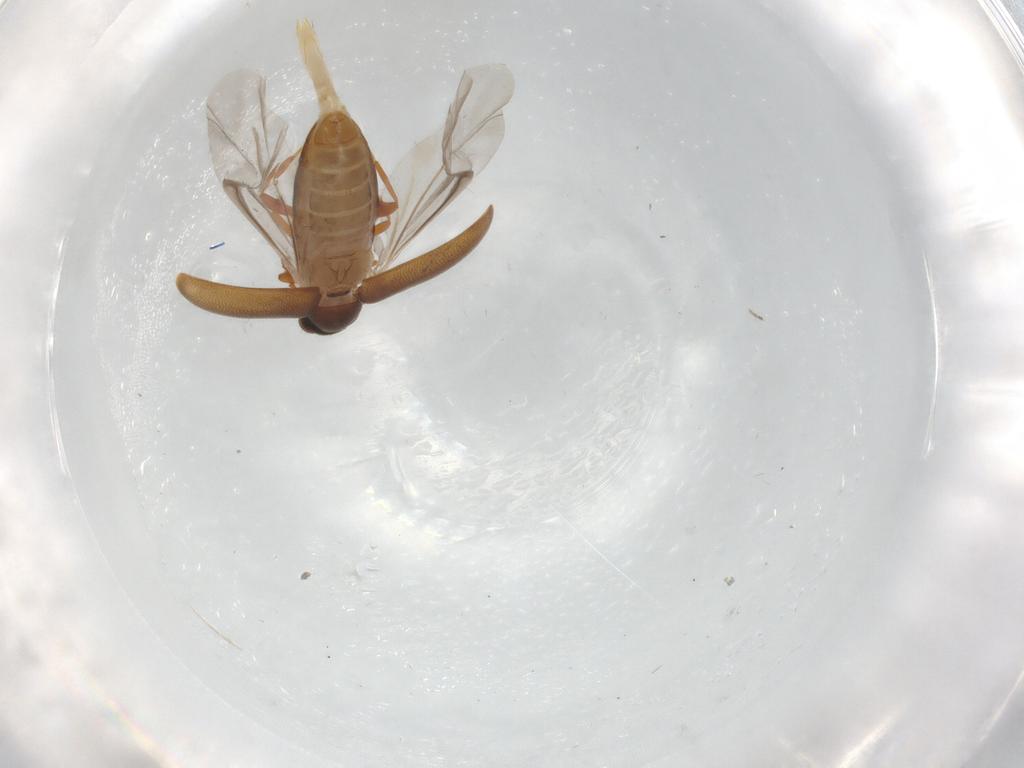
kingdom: Animalia
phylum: Arthropoda
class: Insecta
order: Coleoptera
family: Aderidae
